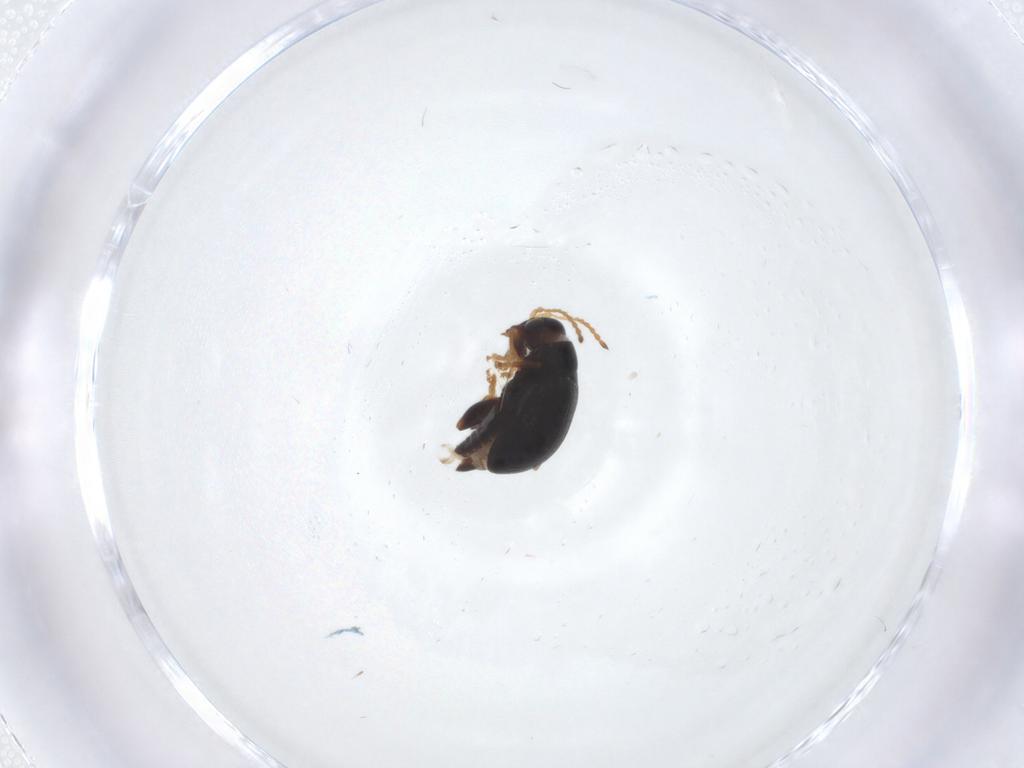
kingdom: Animalia
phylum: Arthropoda
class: Insecta
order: Coleoptera
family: Chrysomelidae
